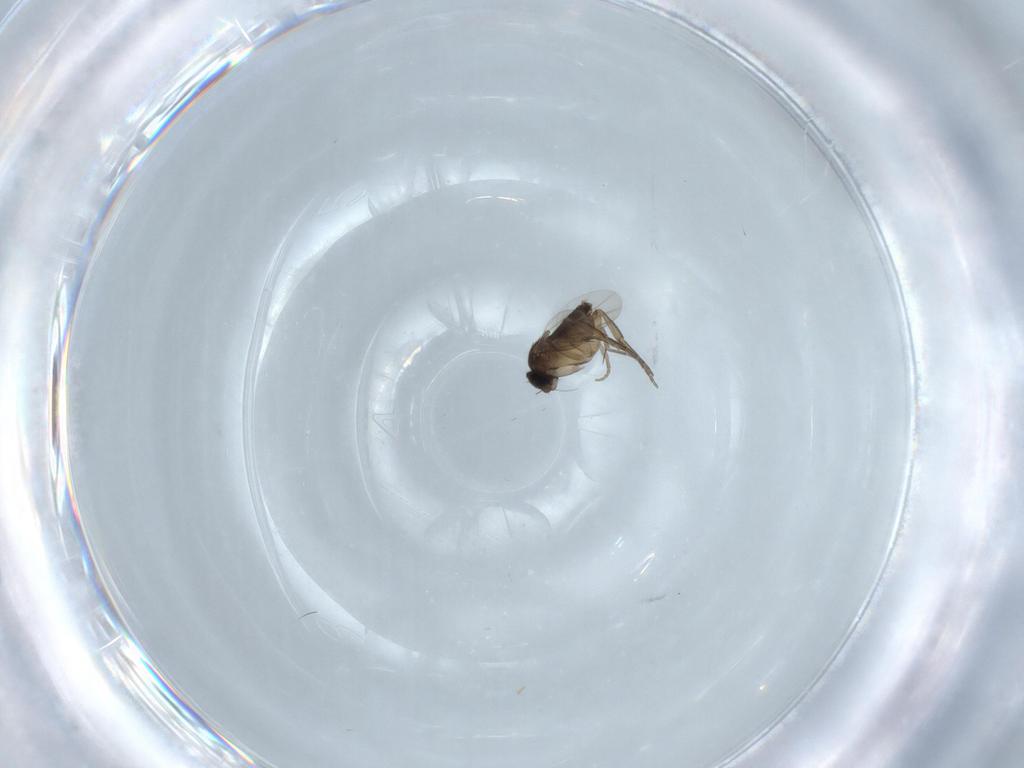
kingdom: Animalia
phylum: Arthropoda
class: Insecta
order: Diptera
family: Phoridae
